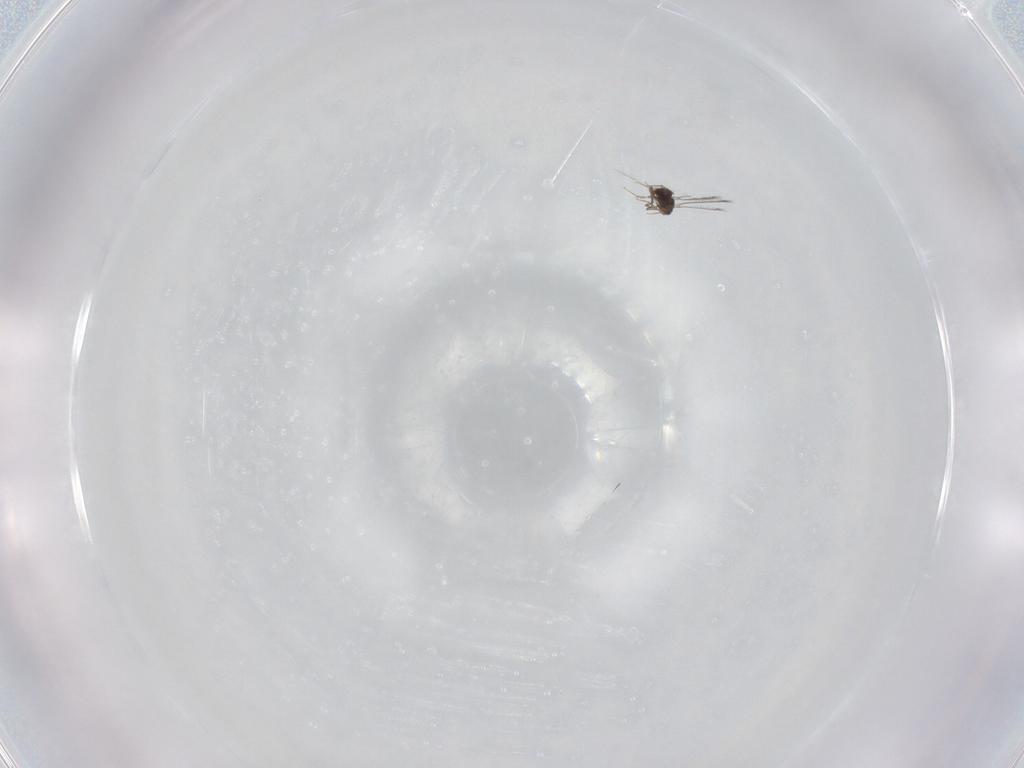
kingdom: Animalia
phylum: Arthropoda
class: Insecta
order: Hymenoptera
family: Mymaridae
